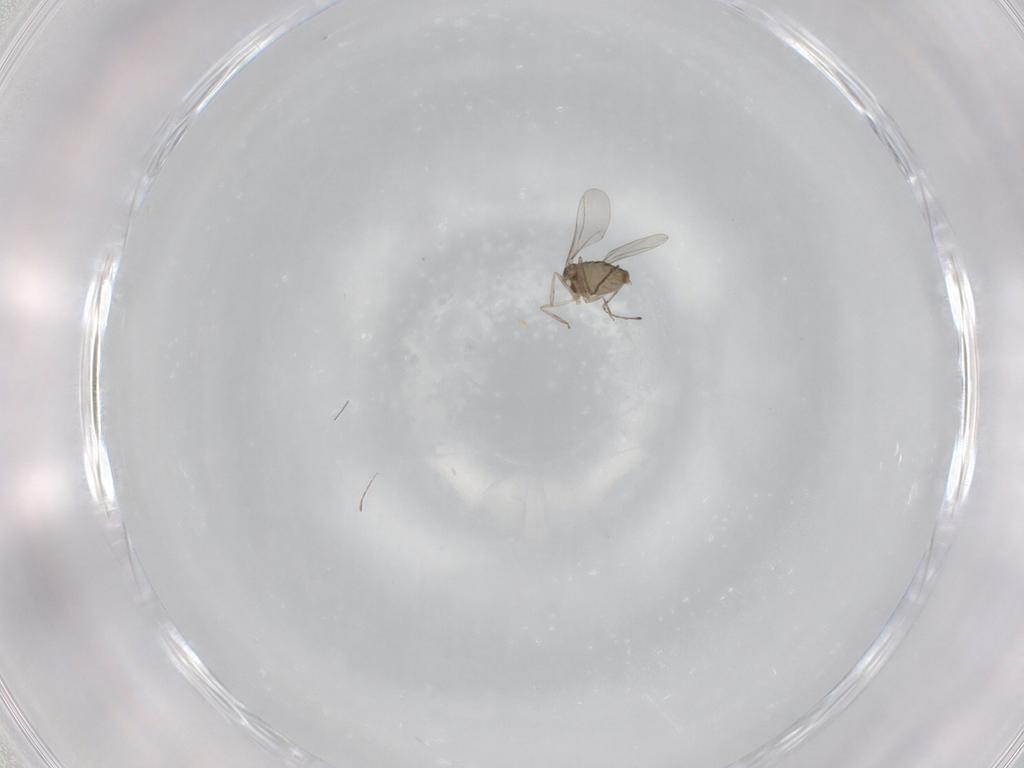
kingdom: Animalia
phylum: Arthropoda
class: Insecta
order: Diptera
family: Cecidomyiidae
